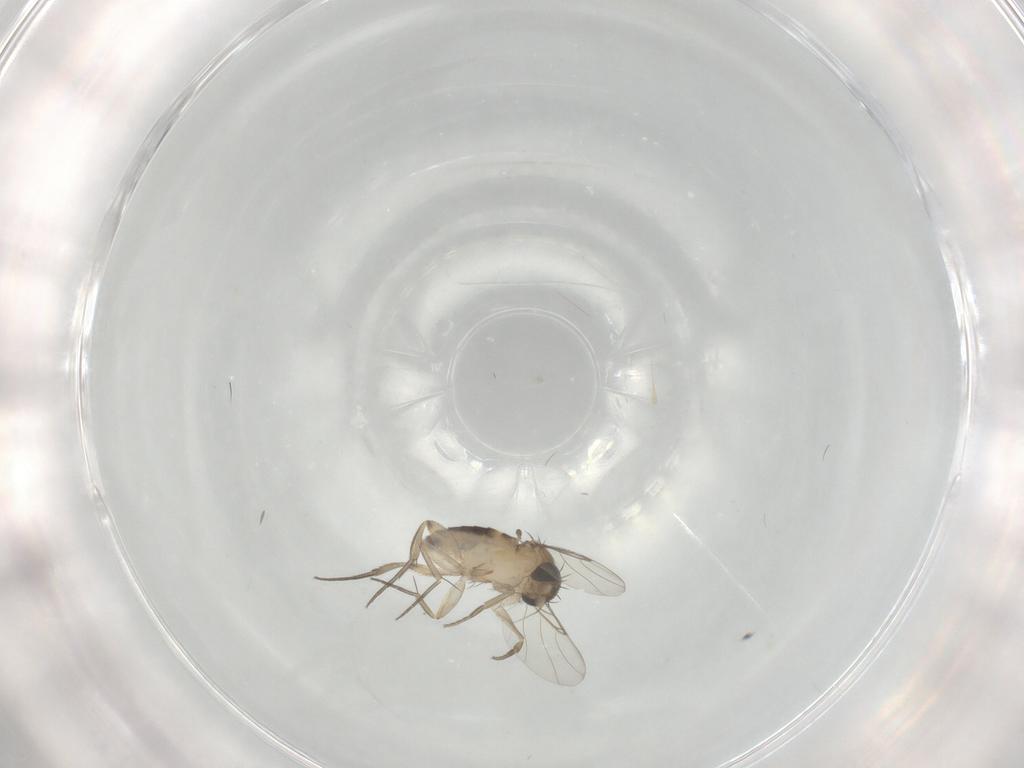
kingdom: Animalia
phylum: Arthropoda
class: Insecta
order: Diptera
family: Phoridae
